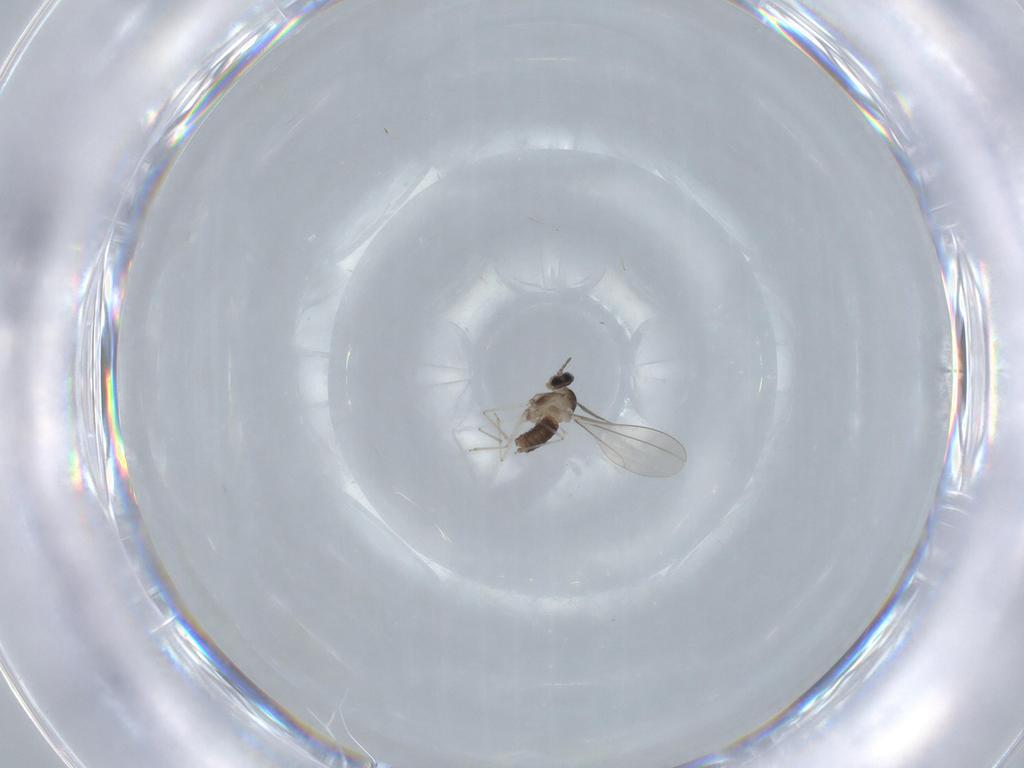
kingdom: Animalia
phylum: Arthropoda
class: Insecta
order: Diptera
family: Cecidomyiidae
